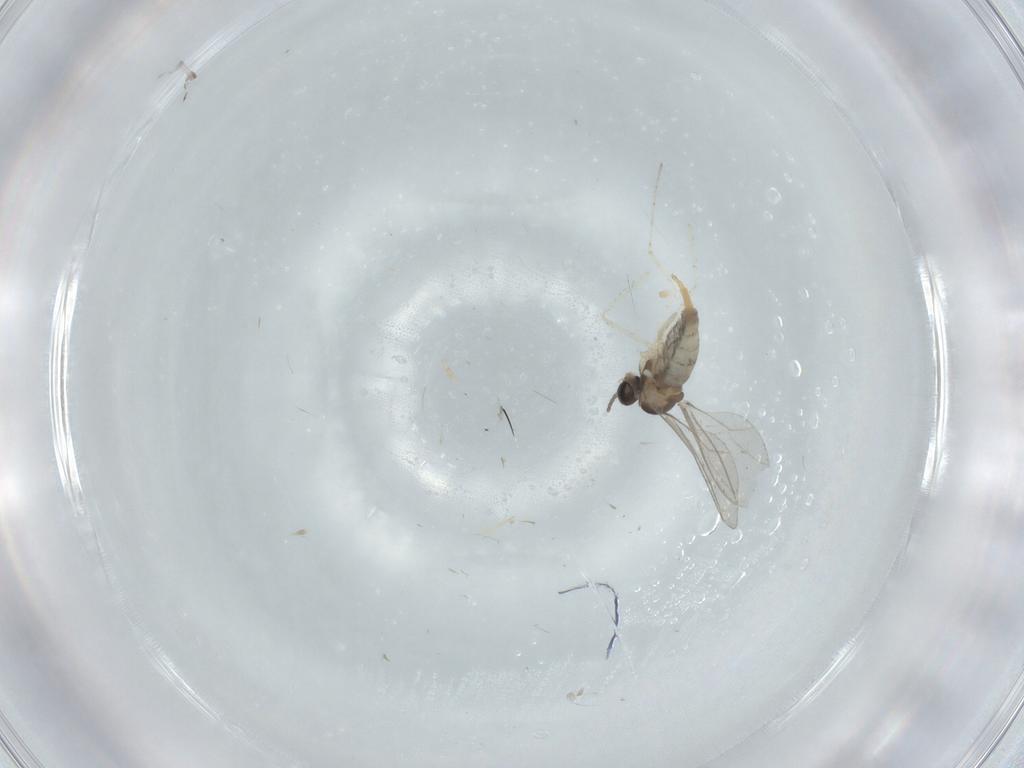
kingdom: Animalia
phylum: Arthropoda
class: Insecta
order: Diptera
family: Cecidomyiidae
